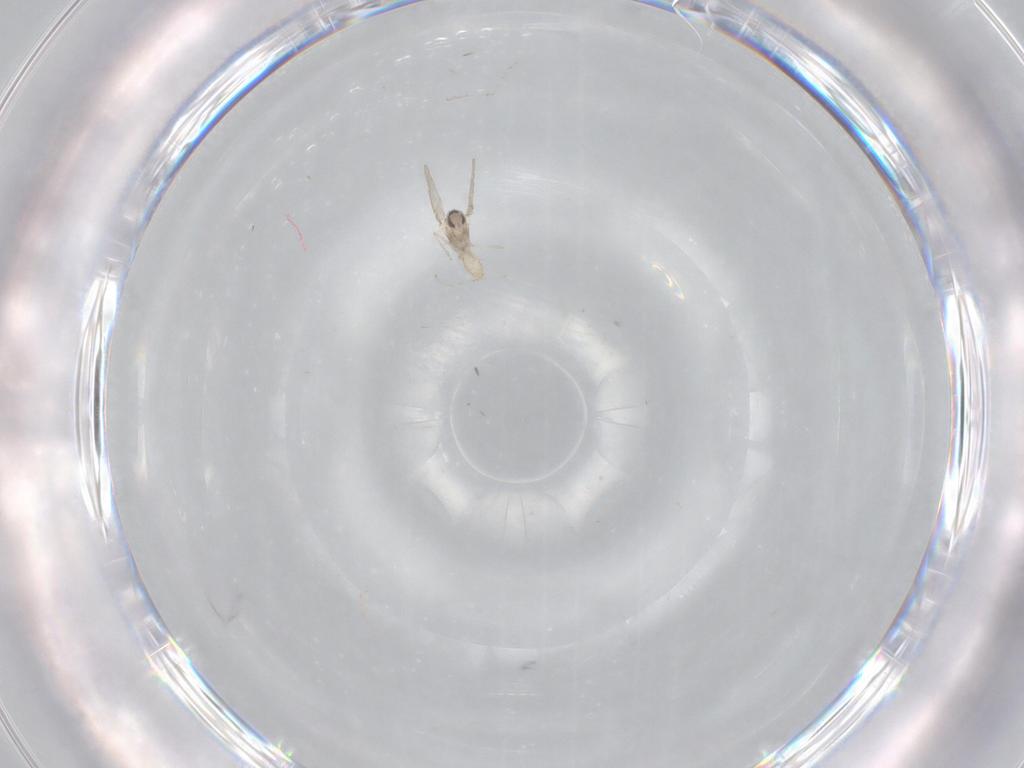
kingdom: Animalia
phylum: Arthropoda
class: Insecta
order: Diptera
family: Cecidomyiidae
